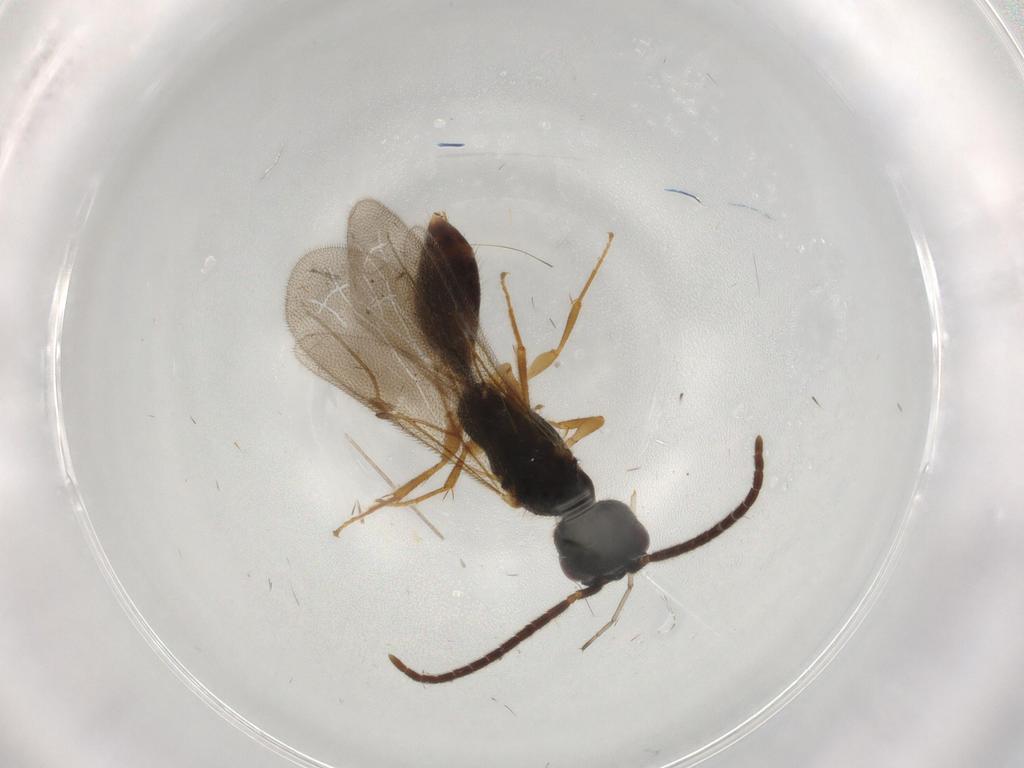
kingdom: Animalia
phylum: Arthropoda
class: Insecta
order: Hymenoptera
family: Bethylidae
